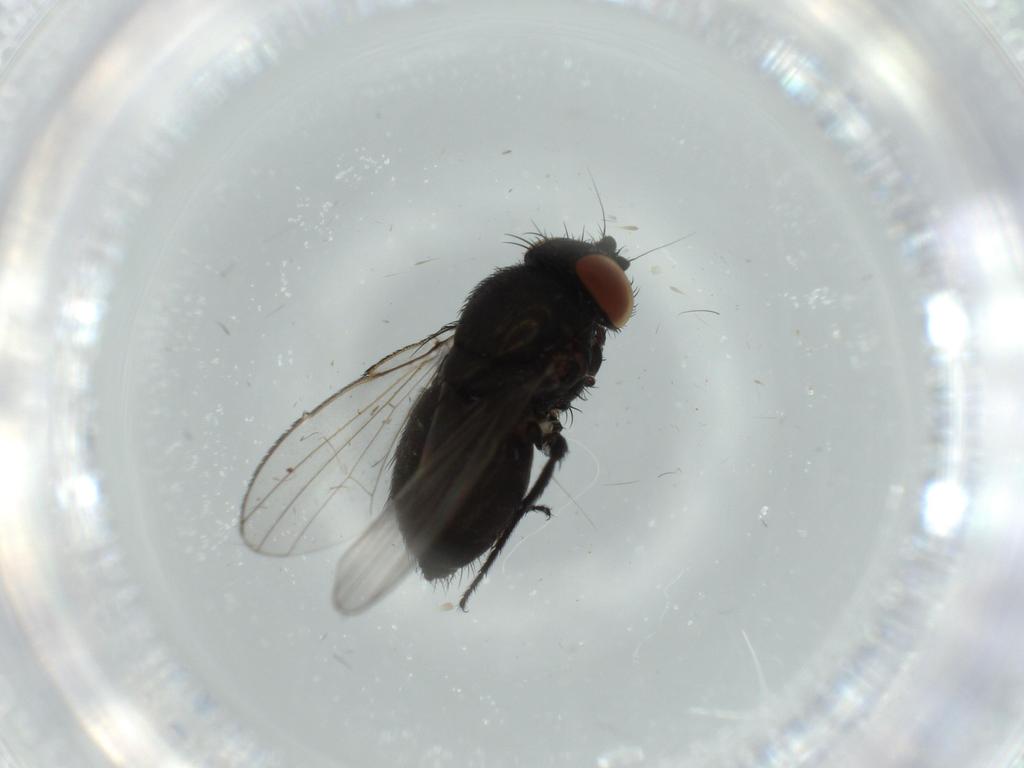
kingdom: Animalia
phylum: Arthropoda
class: Insecta
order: Diptera
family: Milichiidae
